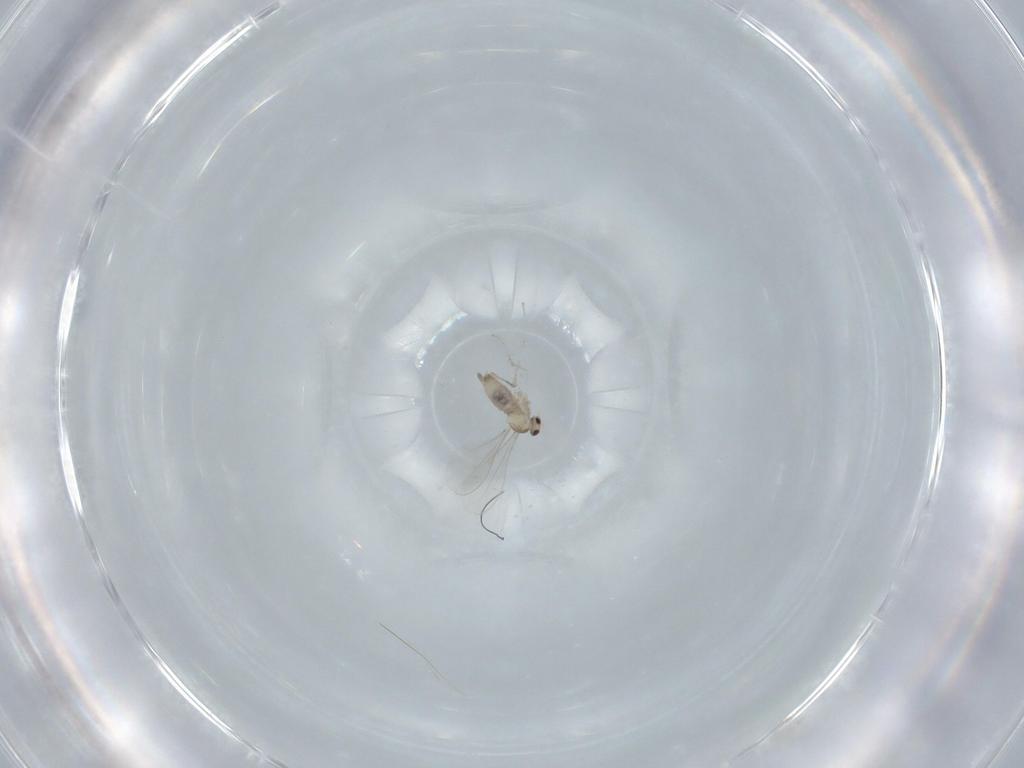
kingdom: Animalia
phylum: Arthropoda
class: Insecta
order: Diptera
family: Cecidomyiidae
